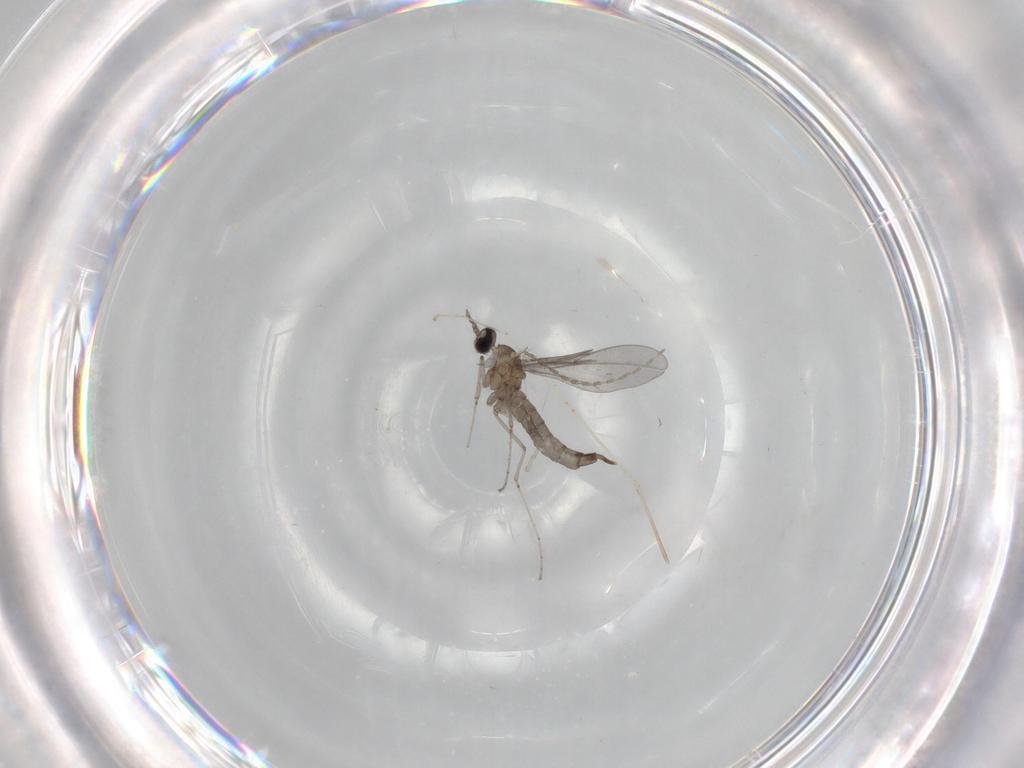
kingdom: Animalia
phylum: Arthropoda
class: Insecta
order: Diptera
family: Cecidomyiidae
